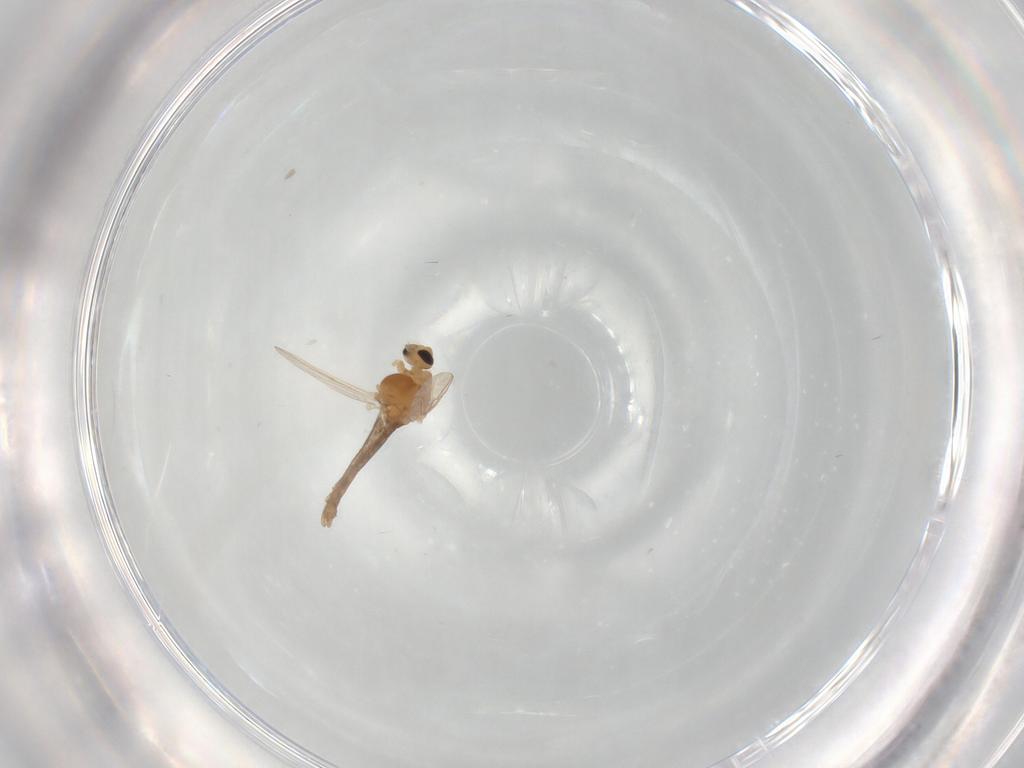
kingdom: Animalia
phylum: Arthropoda
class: Insecta
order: Diptera
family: Chironomidae
